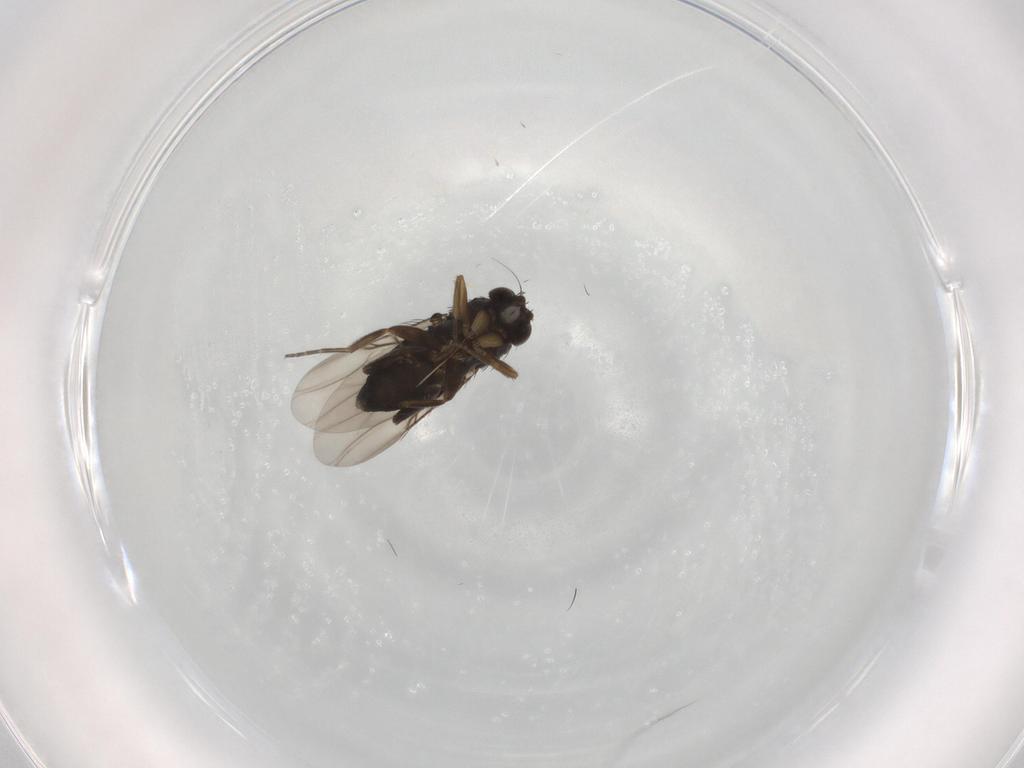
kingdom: Animalia
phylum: Arthropoda
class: Insecta
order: Diptera
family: Phoridae
